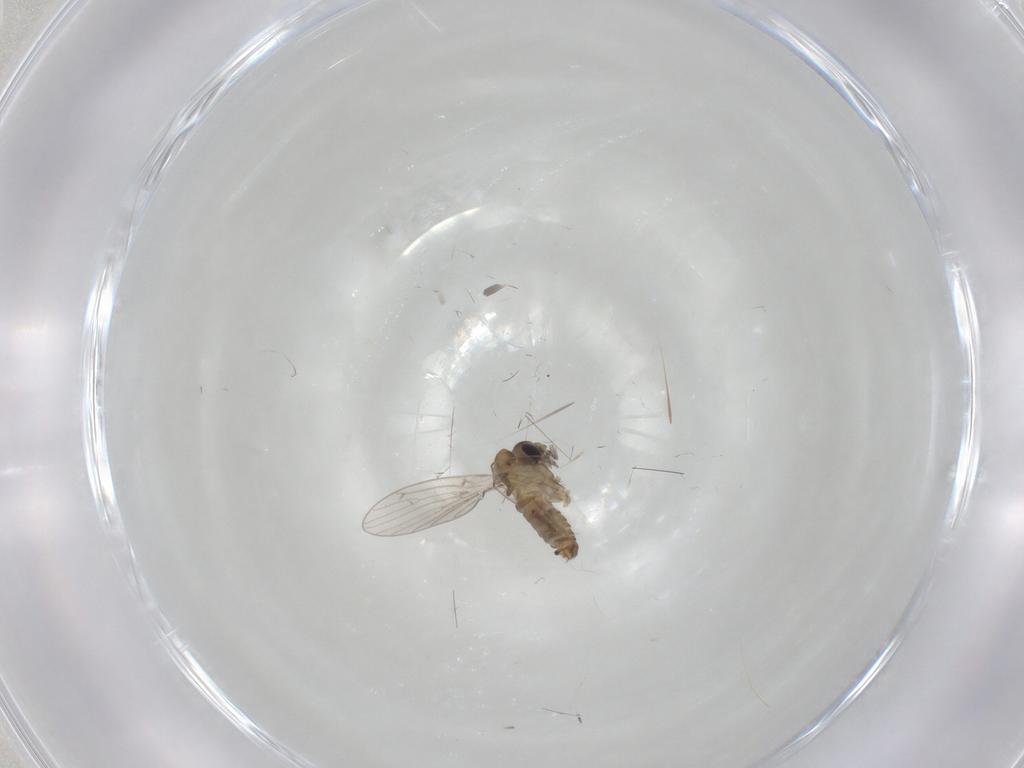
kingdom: Animalia
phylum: Arthropoda
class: Insecta
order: Diptera
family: Psychodidae
